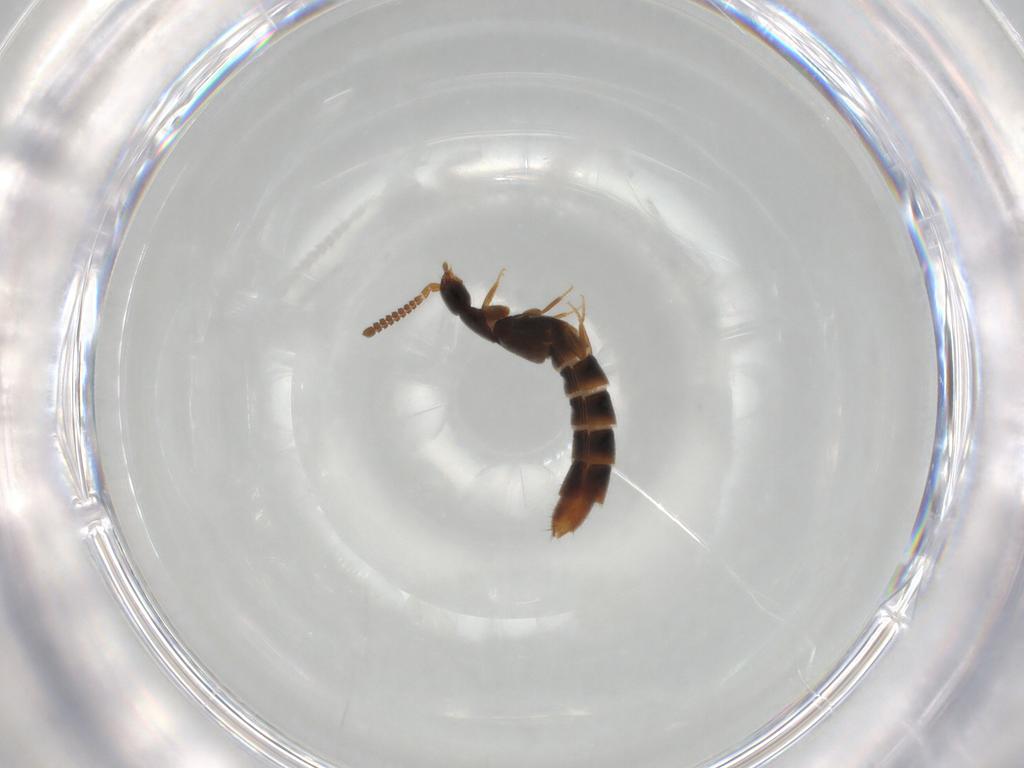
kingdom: Animalia
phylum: Arthropoda
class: Insecta
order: Coleoptera
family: Staphylinidae
